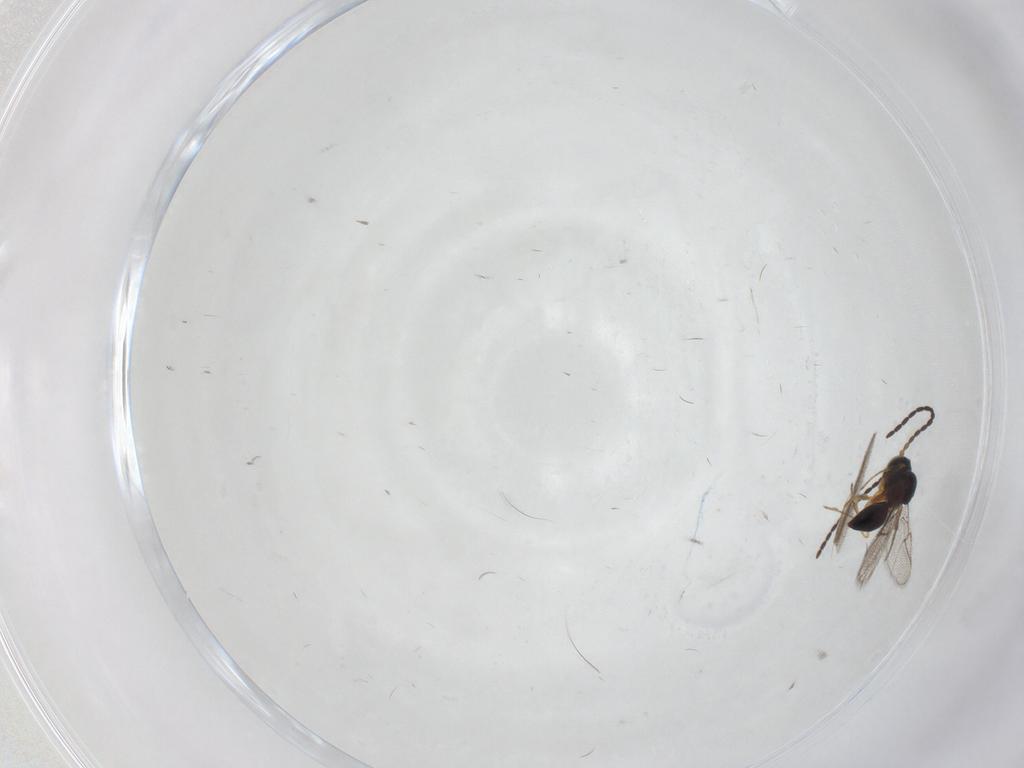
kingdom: Animalia
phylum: Arthropoda
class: Insecta
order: Hymenoptera
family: Figitidae
